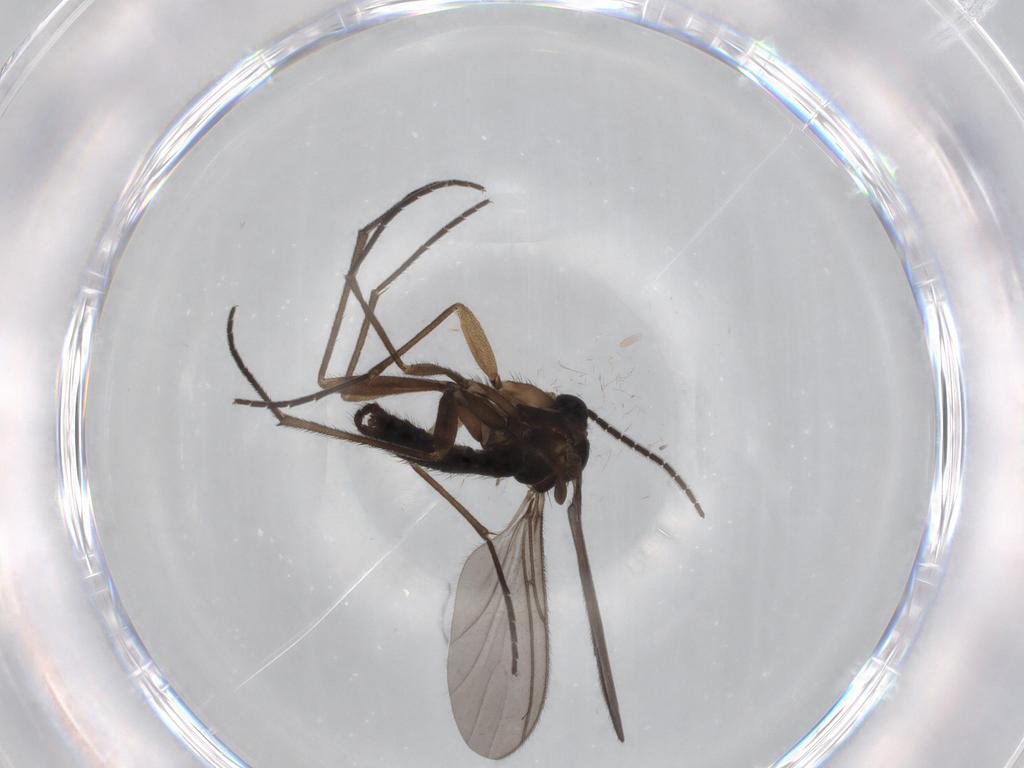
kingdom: Animalia
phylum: Arthropoda
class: Insecta
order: Diptera
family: Sciaridae
